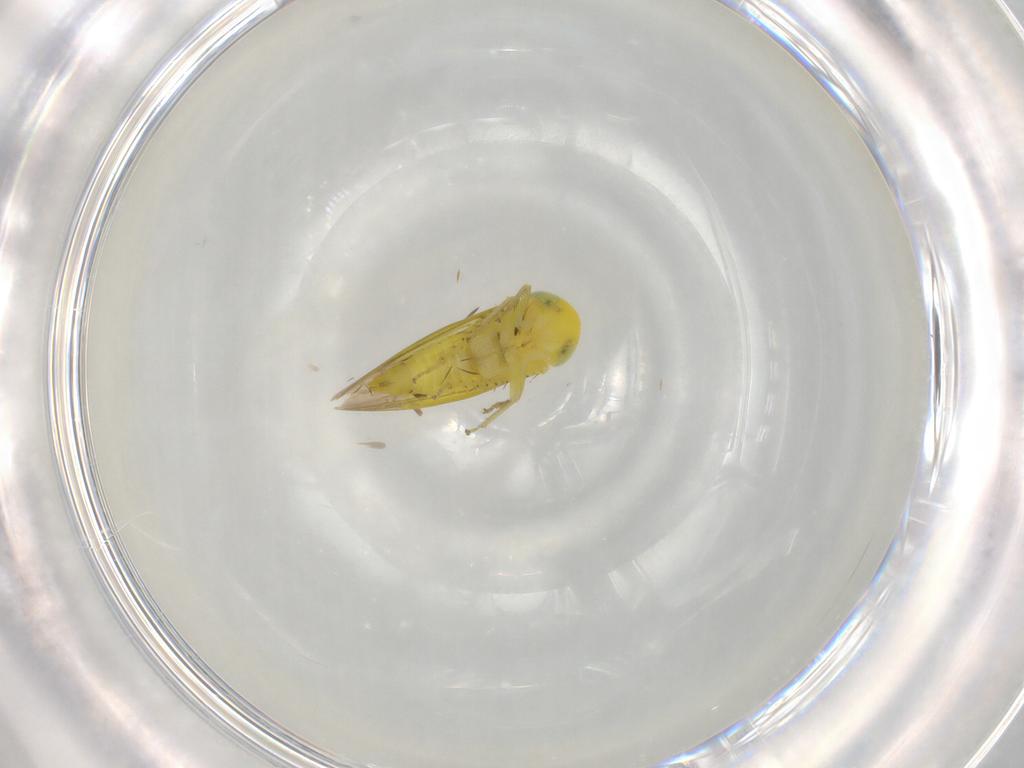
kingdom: Animalia
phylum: Arthropoda
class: Insecta
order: Hemiptera
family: Cicadellidae
